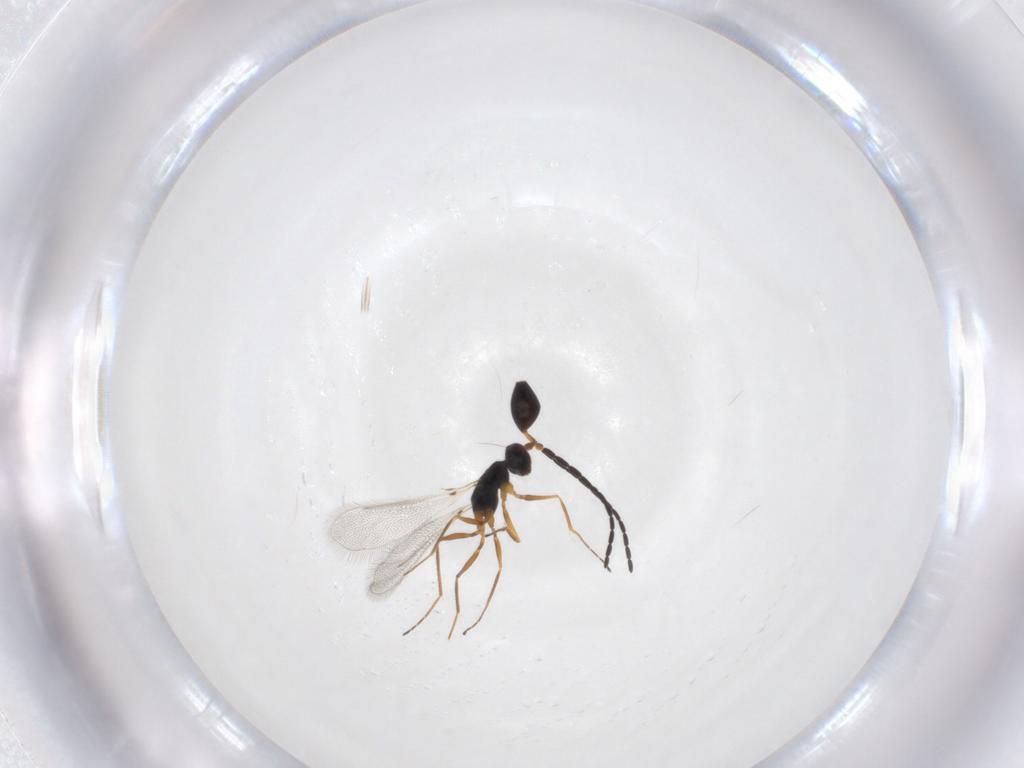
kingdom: Animalia
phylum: Arthropoda
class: Insecta
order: Hymenoptera
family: Eulophidae
